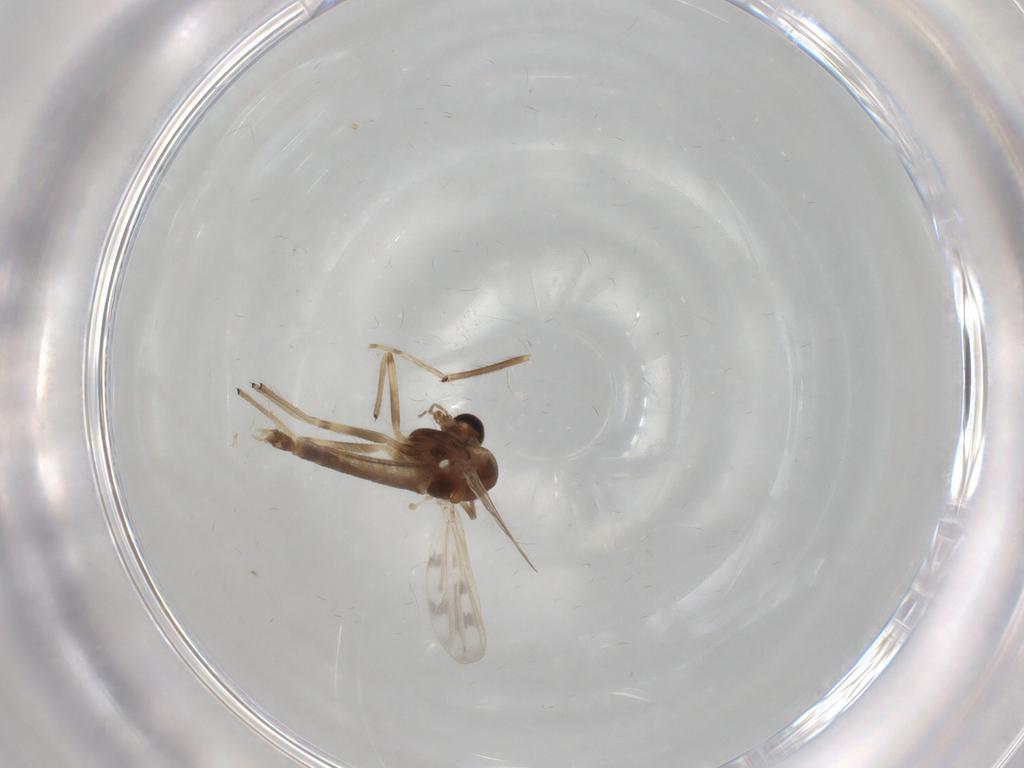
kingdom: Animalia
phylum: Arthropoda
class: Insecta
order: Diptera
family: Chironomidae
